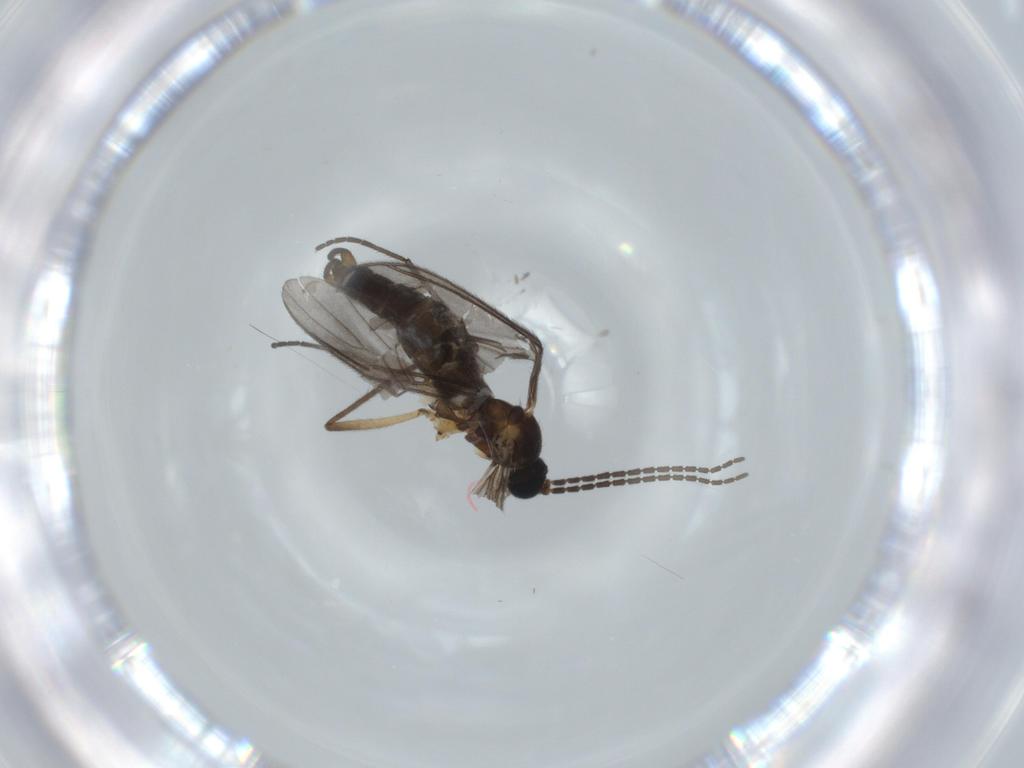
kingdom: Animalia
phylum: Arthropoda
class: Insecta
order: Diptera
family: Sciaridae
